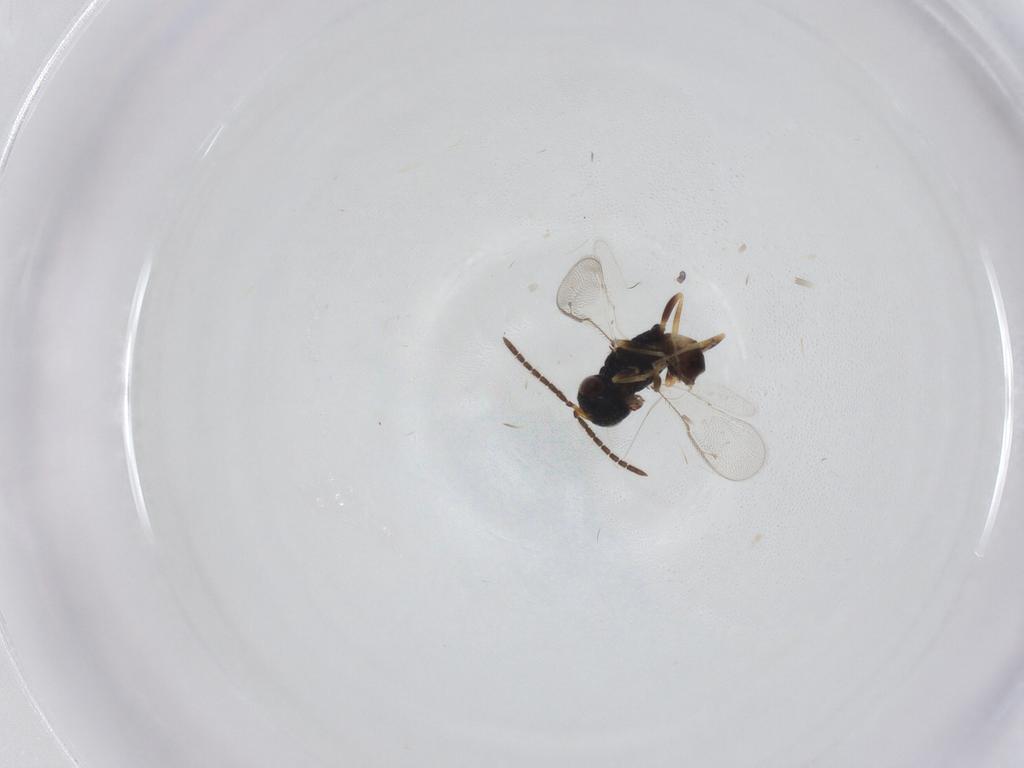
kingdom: Animalia
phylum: Arthropoda
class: Insecta
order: Hymenoptera
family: Pteromalidae
